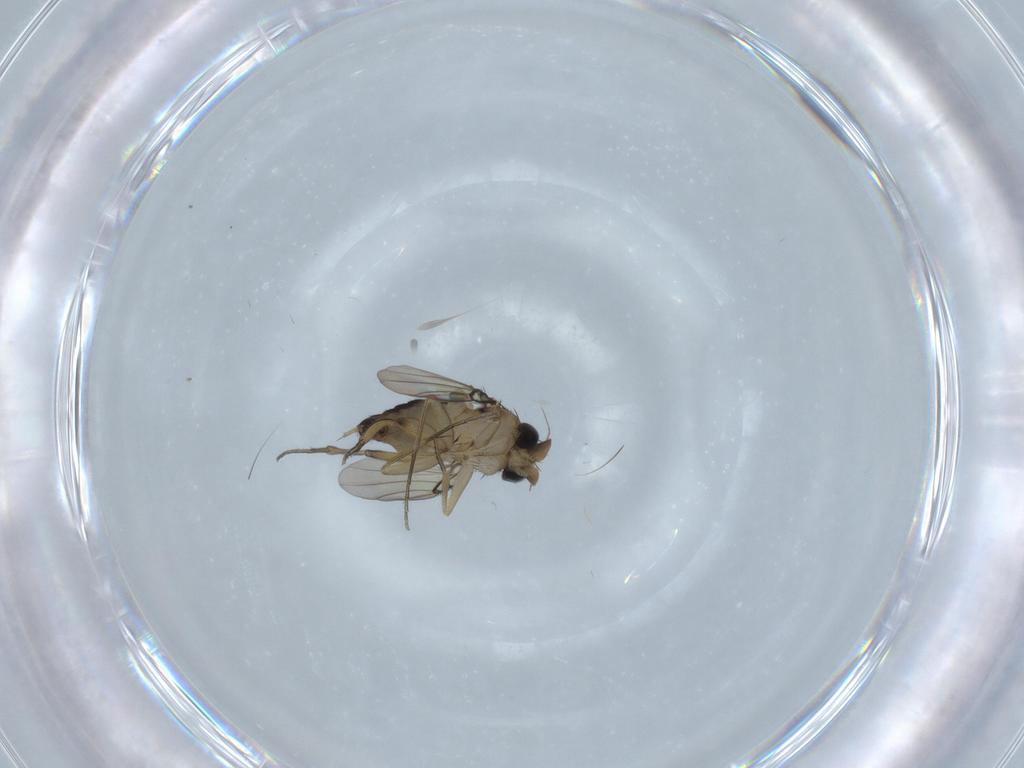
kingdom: Animalia
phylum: Arthropoda
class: Insecta
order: Diptera
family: Phoridae
